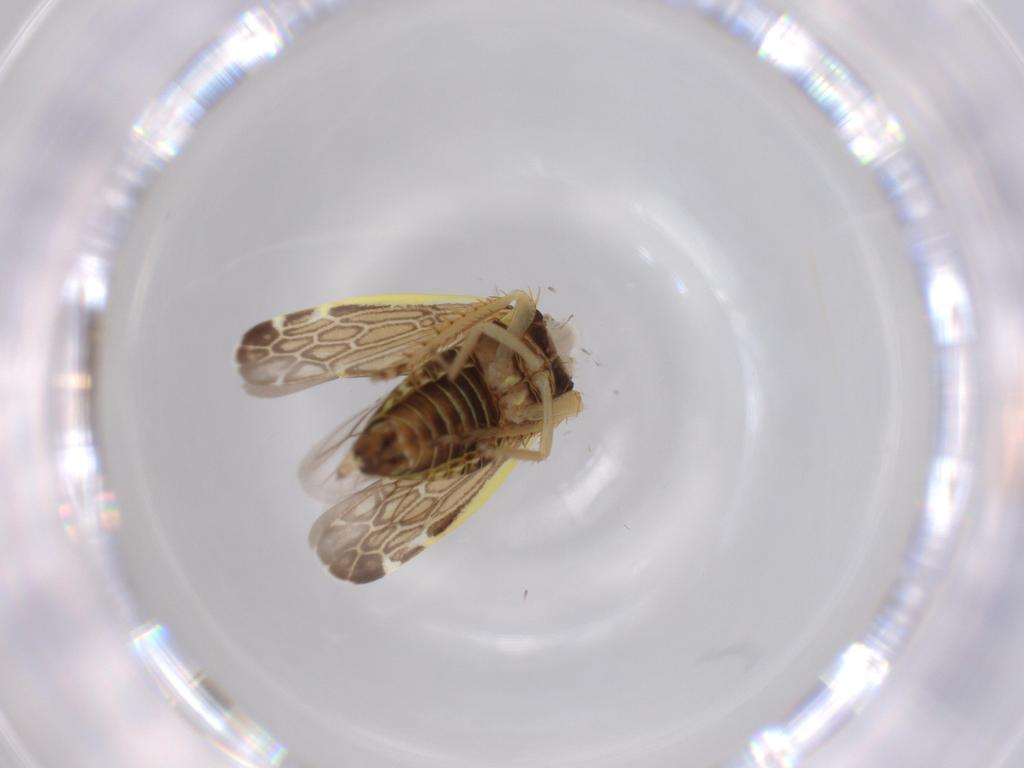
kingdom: Animalia
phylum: Arthropoda
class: Insecta
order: Hemiptera
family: Cicadellidae
